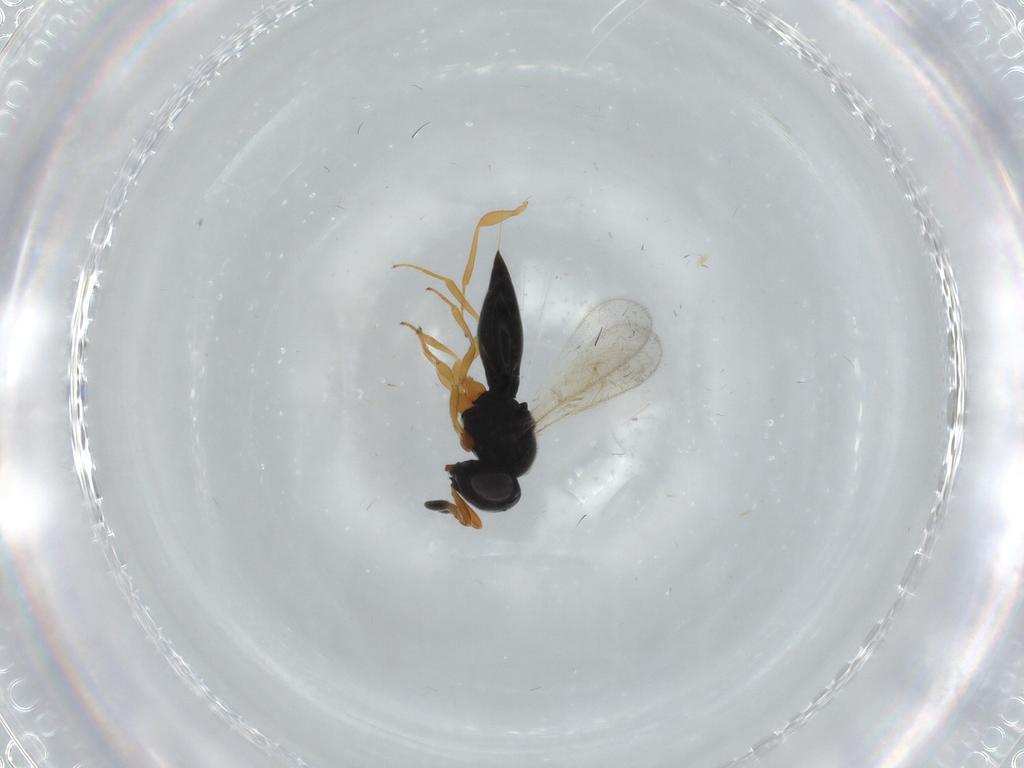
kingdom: Animalia
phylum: Arthropoda
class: Insecta
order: Hymenoptera
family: Scelionidae
